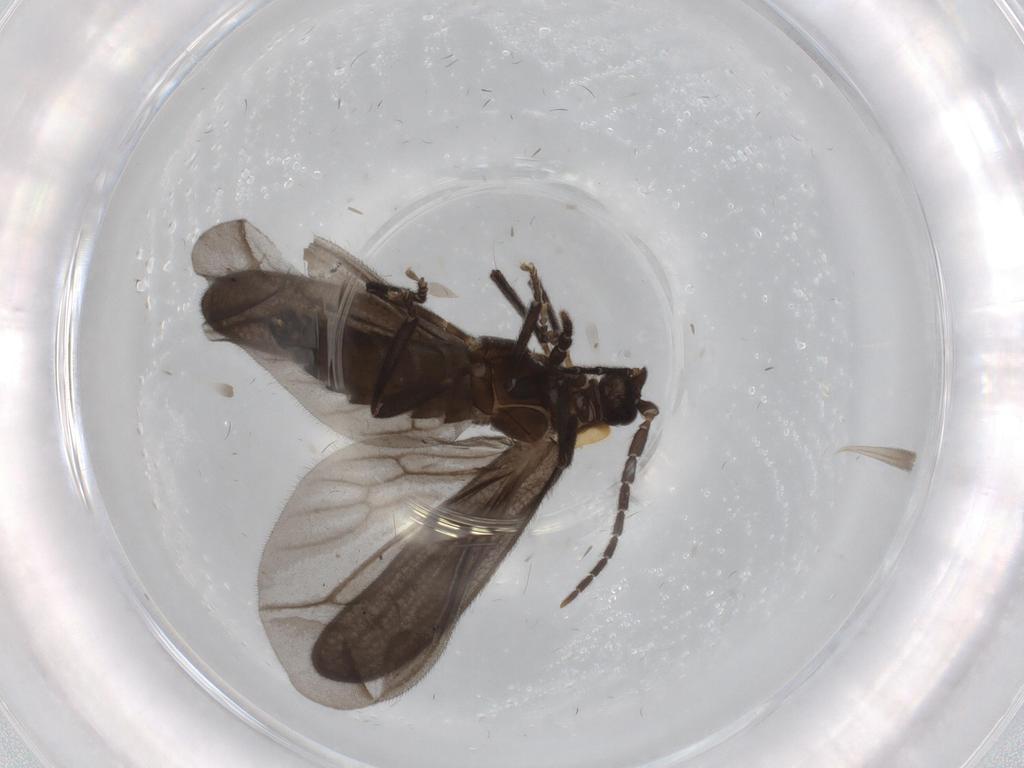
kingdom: Animalia
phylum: Arthropoda
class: Insecta
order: Coleoptera
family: Lycidae
